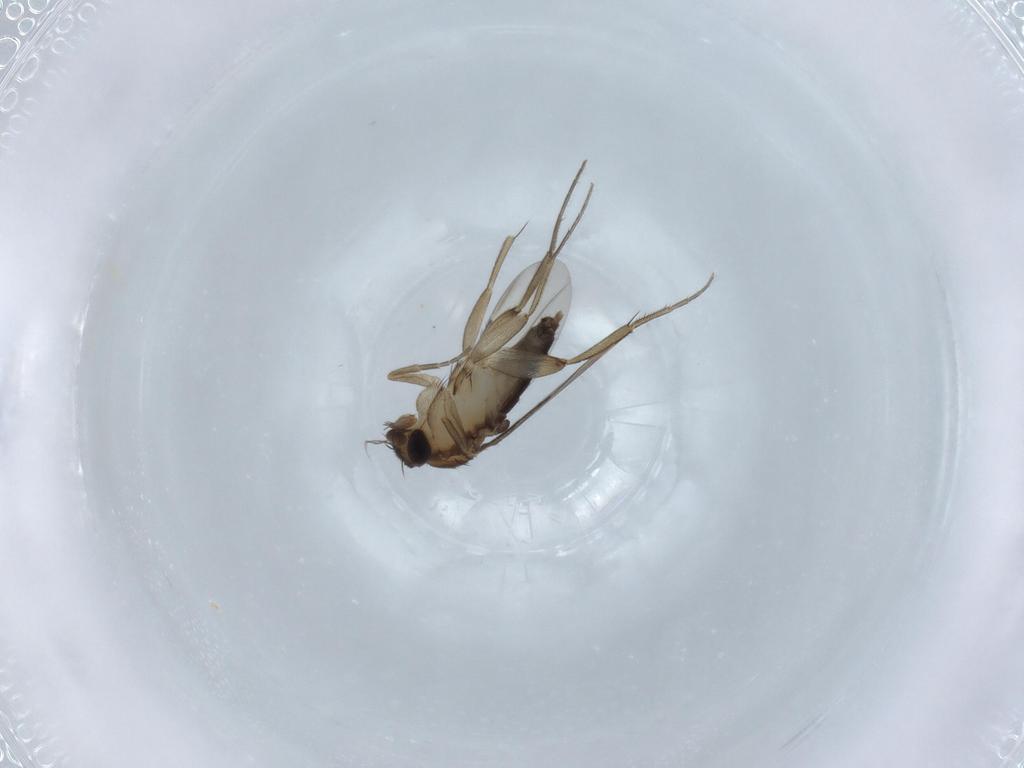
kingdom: Animalia
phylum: Arthropoda
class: Insecta
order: Diptera
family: Phoridae
